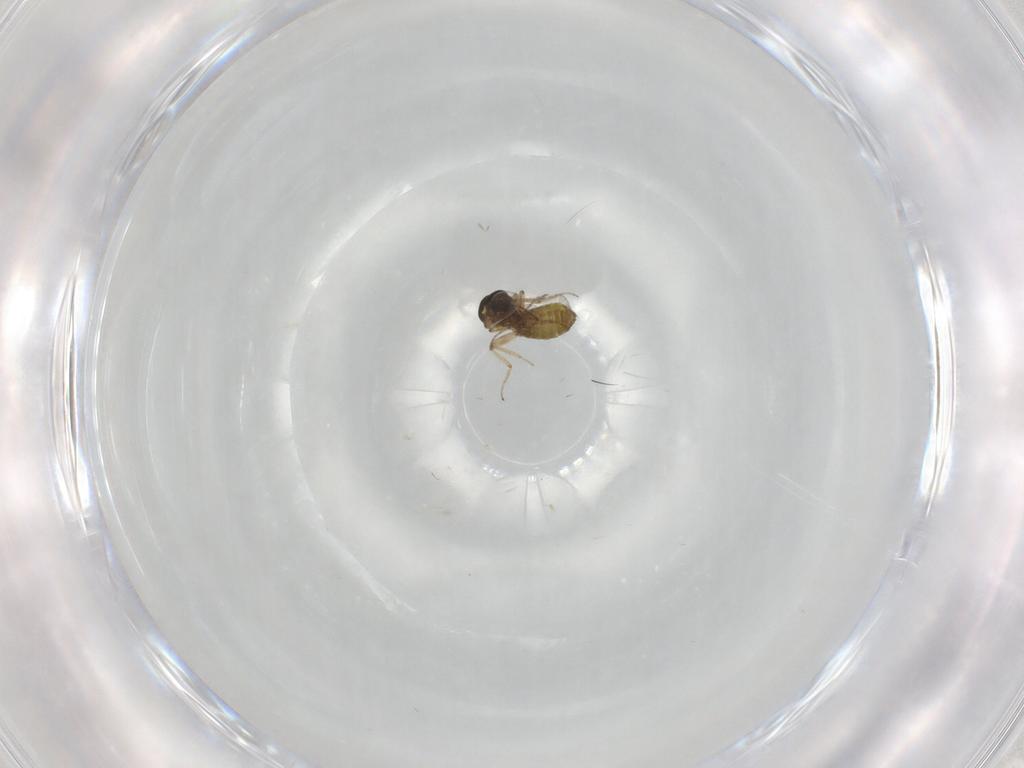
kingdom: Animalia
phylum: Arthropoda
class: Insecta
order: Diptera
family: Ceratopogonidae
